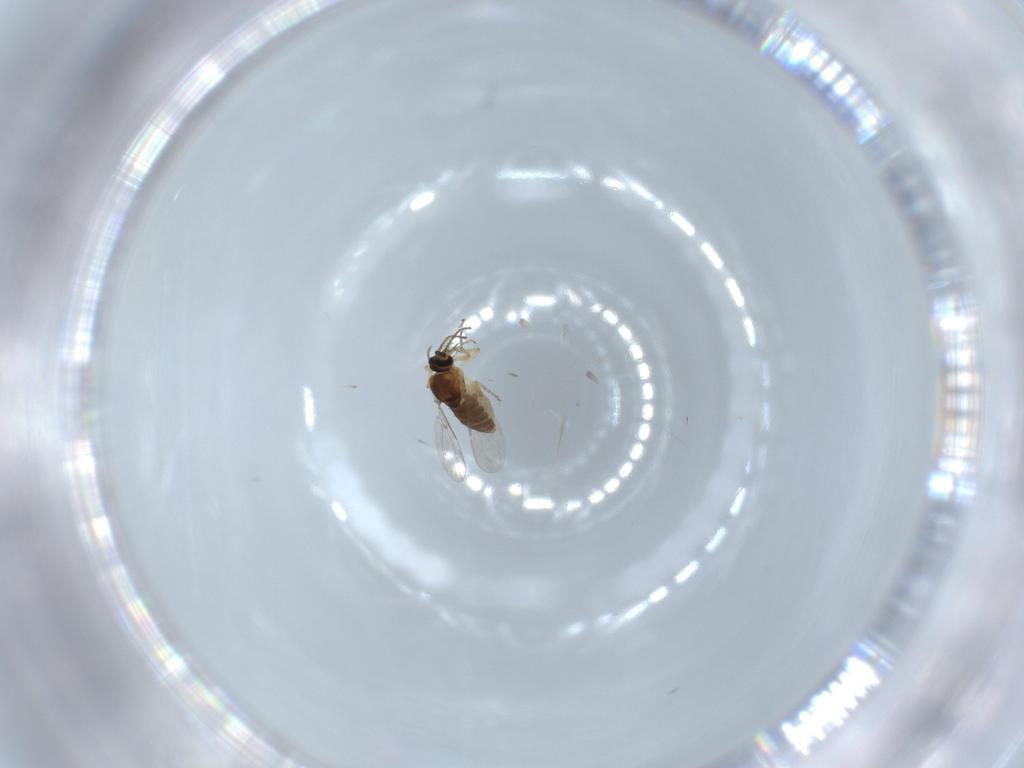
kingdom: Animalia
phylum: Arthropoda
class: Insecta
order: Diptera
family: Ceratopogonidae
